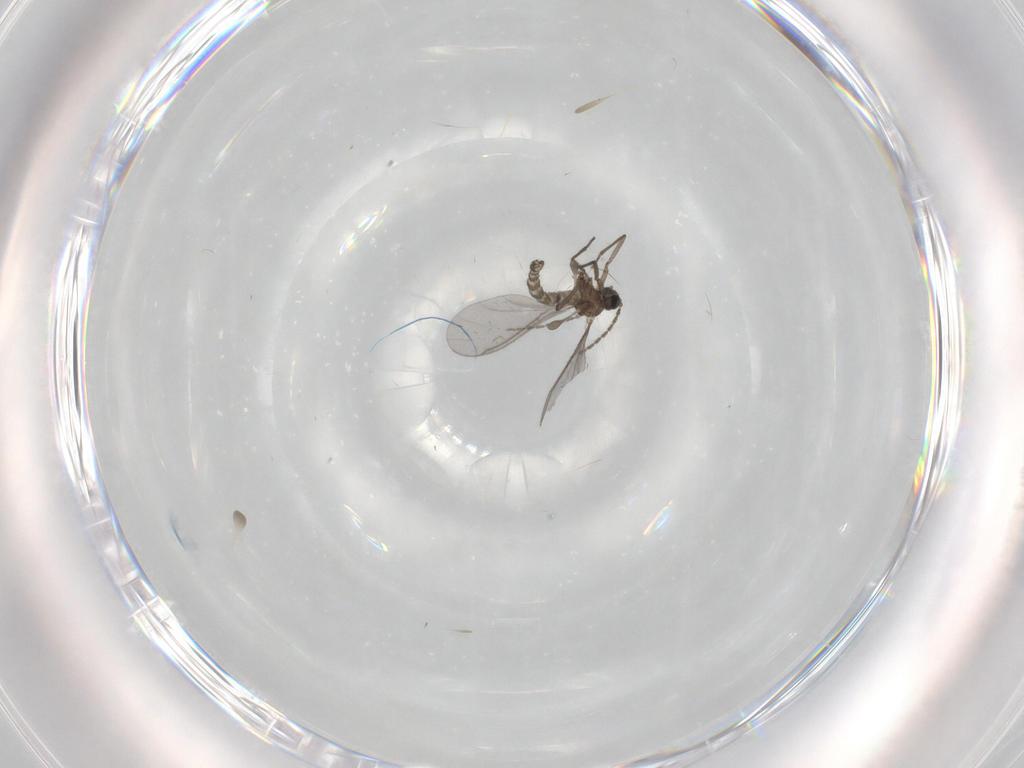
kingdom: Animalia
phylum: Arthropoda
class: Insecta
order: Diptera
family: Sciaridae
